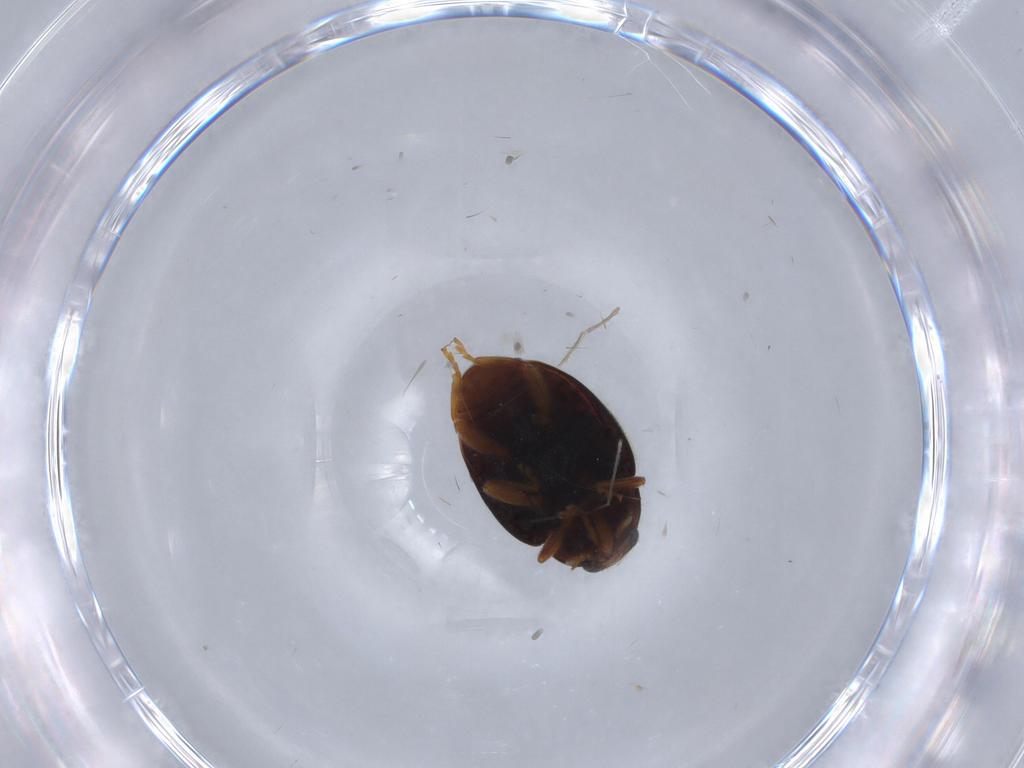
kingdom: Animalia
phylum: Arthropoda
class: Insecta
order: Coleoptera
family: Coccinellidae
